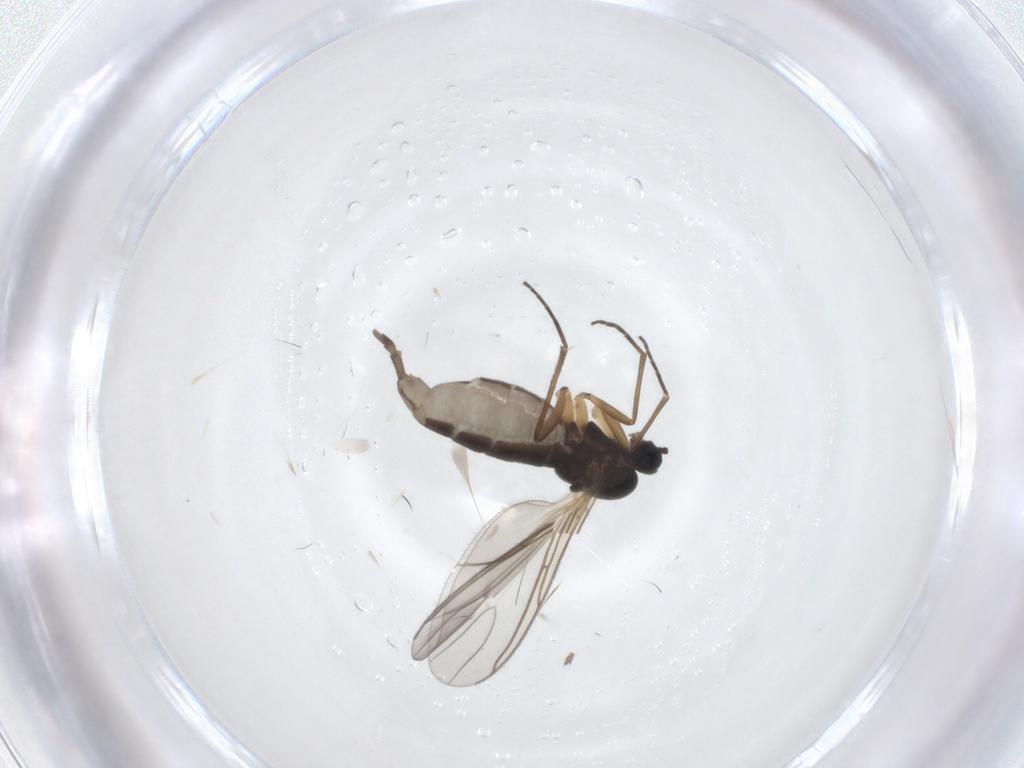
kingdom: Animalia
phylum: Arthropoda
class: Insecta
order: Diptera
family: Sciaridae
